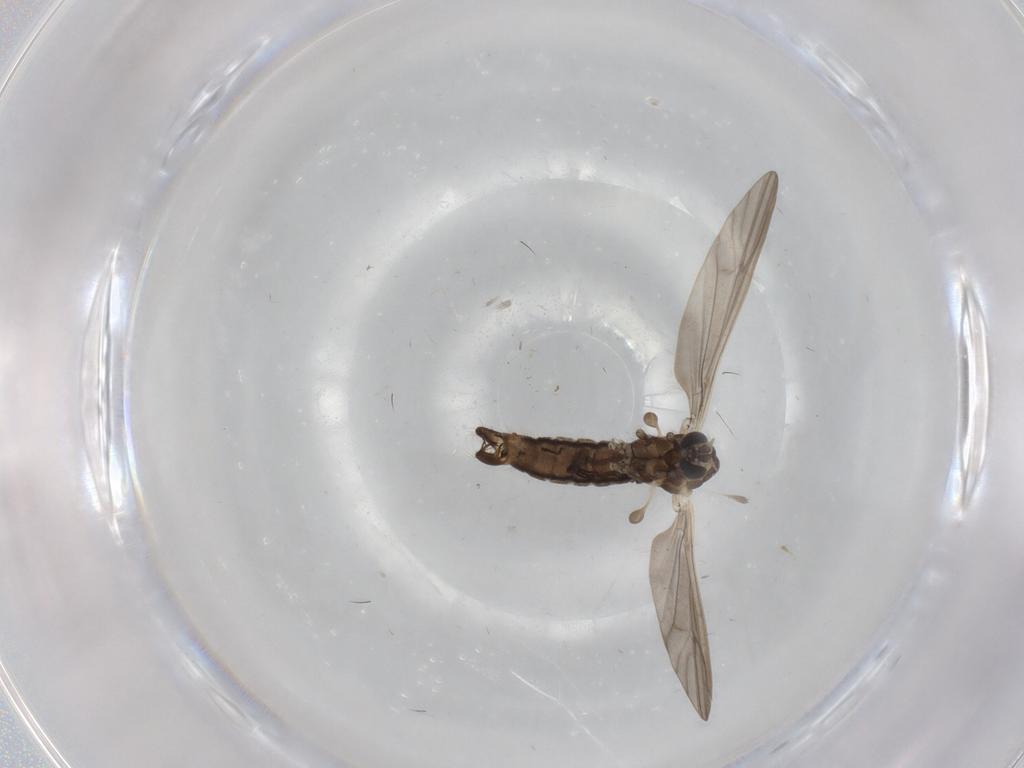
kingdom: Animalia
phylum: Arthropoda
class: Insecta
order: Diptera
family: Limoniidae
